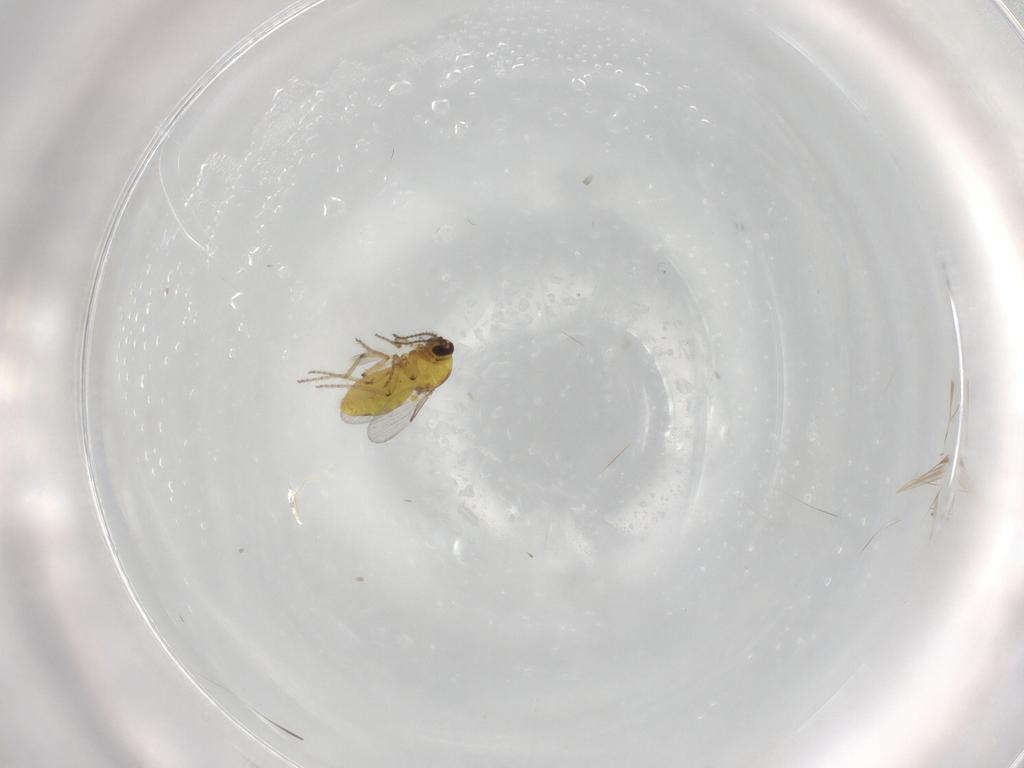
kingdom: Animalia
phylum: Arthropoda
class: Insecta
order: Diptera
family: Phoridae
